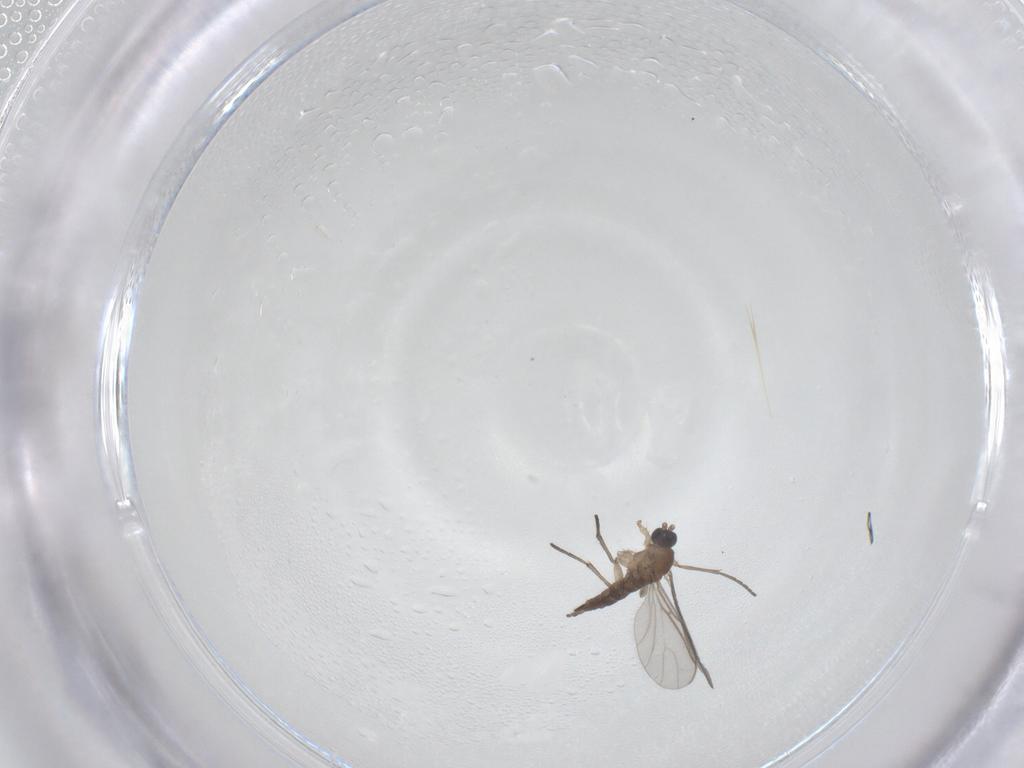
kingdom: Animalia
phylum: Arthropoda
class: Insecta
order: Diptera
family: Sciaridae
